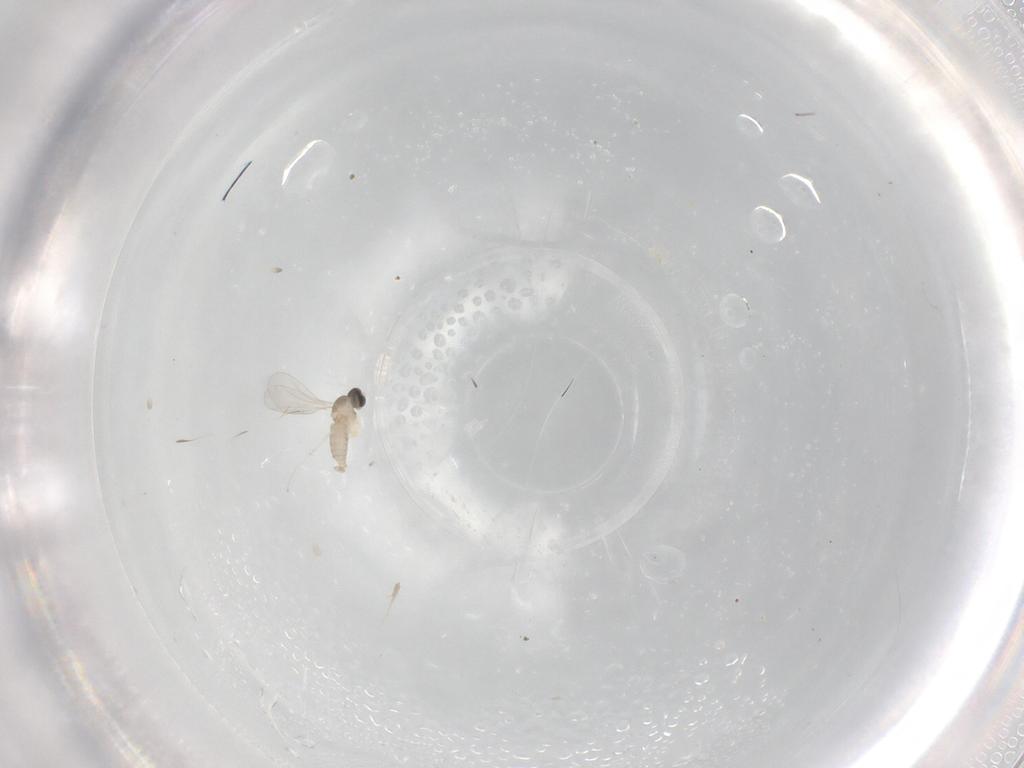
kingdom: Animalia
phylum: Arthropoda
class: Insecta
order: Diptera
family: Cecidomyiidae
